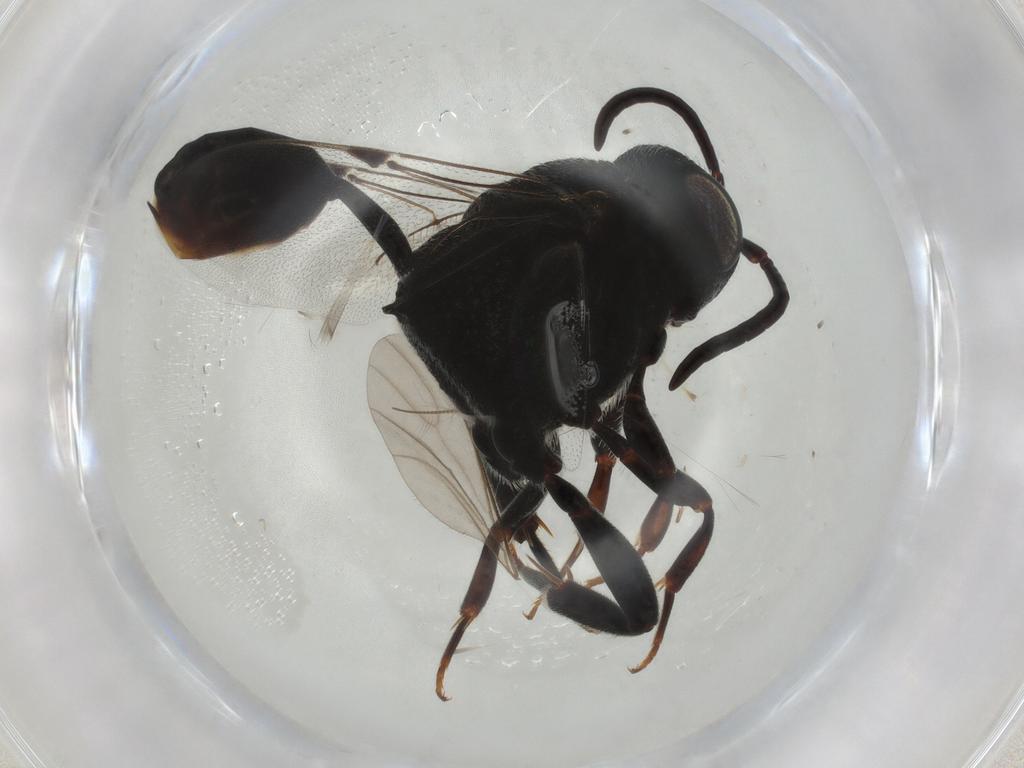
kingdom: Animalia
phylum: Arthropoda
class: Insecta
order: Hymenoptera
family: Evaniidae
